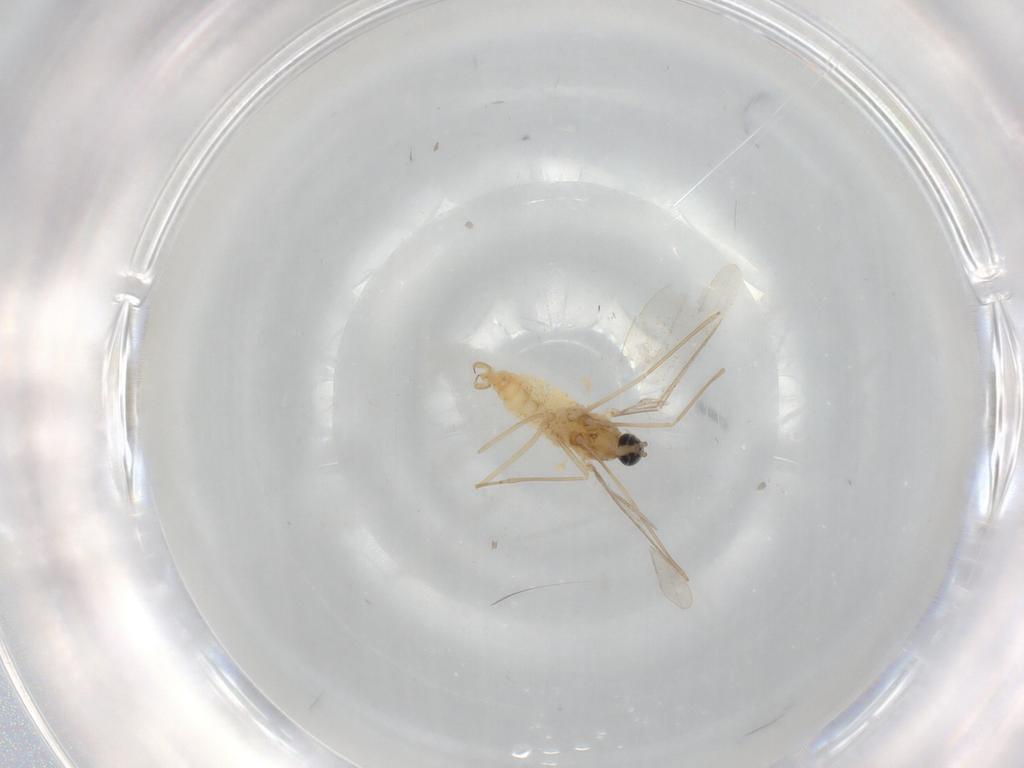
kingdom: Animalia
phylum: Arthropoda
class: Insecta
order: Diptera
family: Cecidomyiidae
